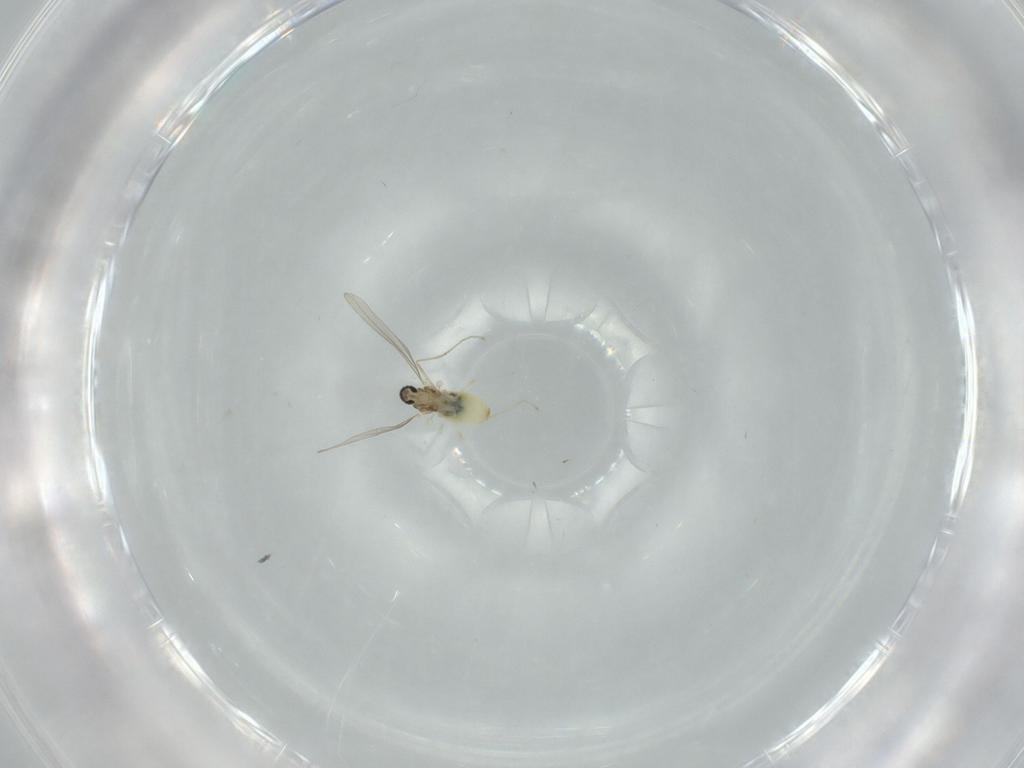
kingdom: Animalia
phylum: Arthropoda
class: Insecta
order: Diptera
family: Cecidomyiidae
